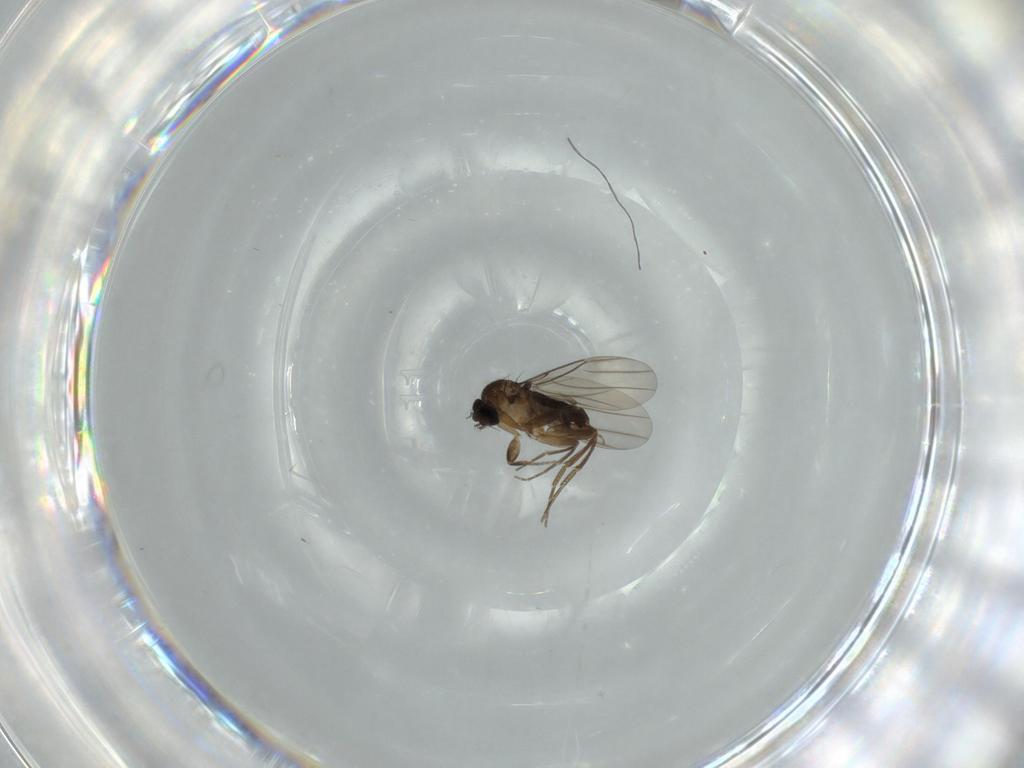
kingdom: Animalia
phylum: Arthropoda
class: Insecta
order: Diptera
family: Phoridae
